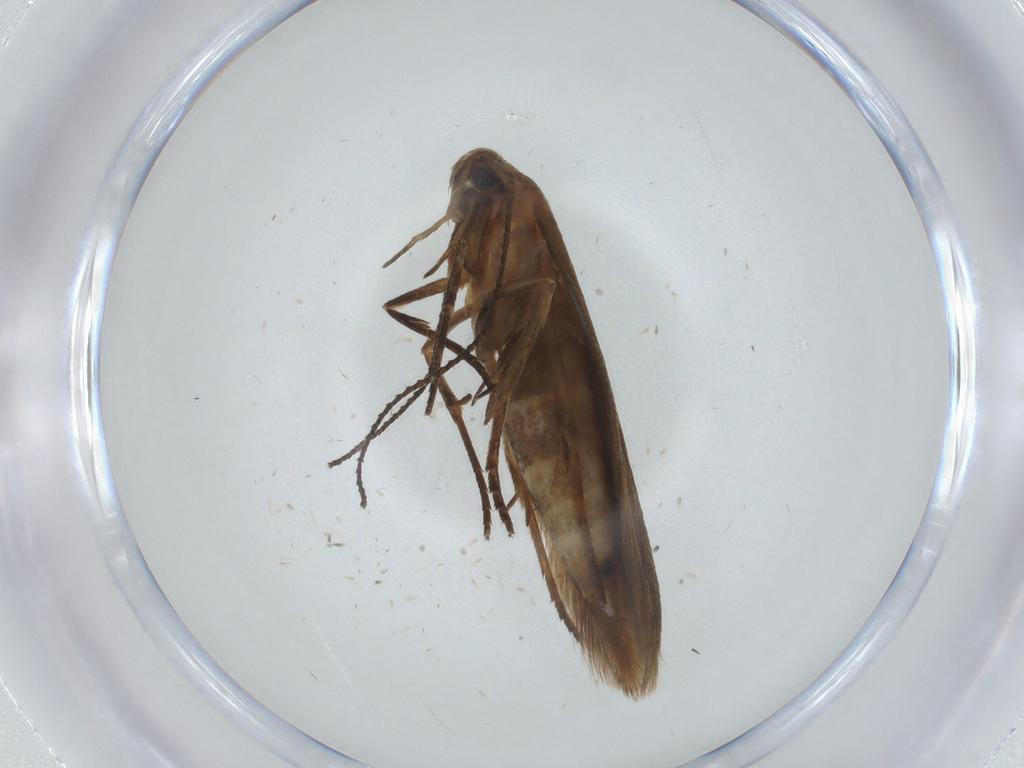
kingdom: Animalia
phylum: Arthropoda
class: Insecta
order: Lepidoptera
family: Elachistidae
